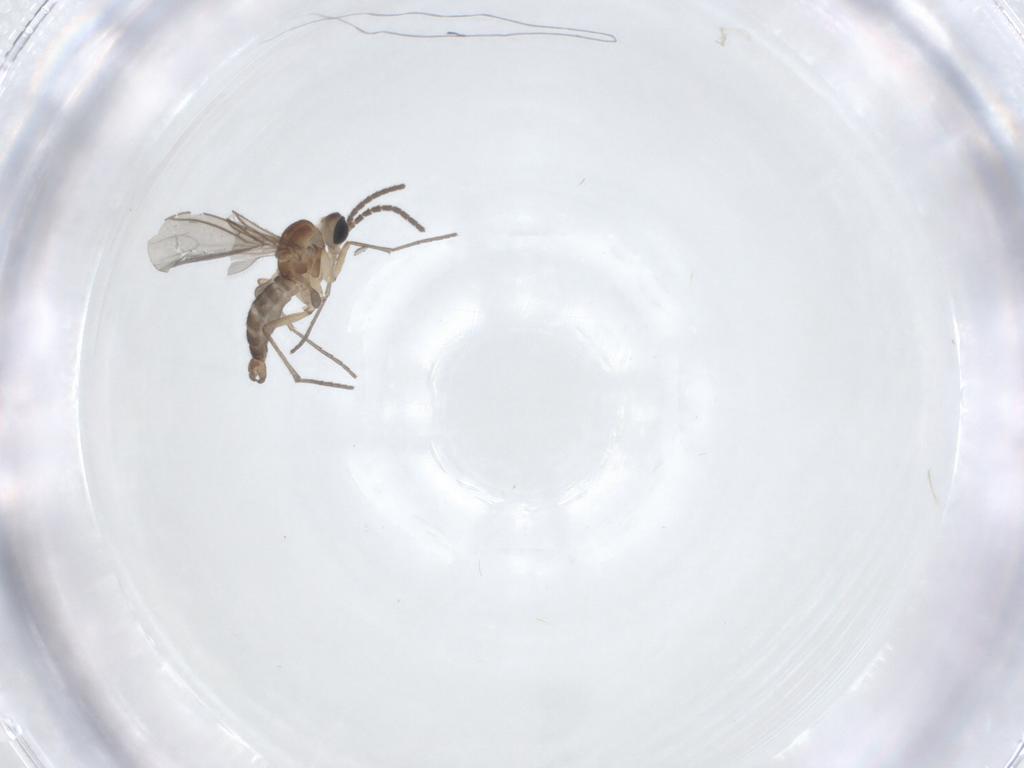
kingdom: Animalia
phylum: Arthropoda
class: Insecta
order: Diptera
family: Sciaridae
